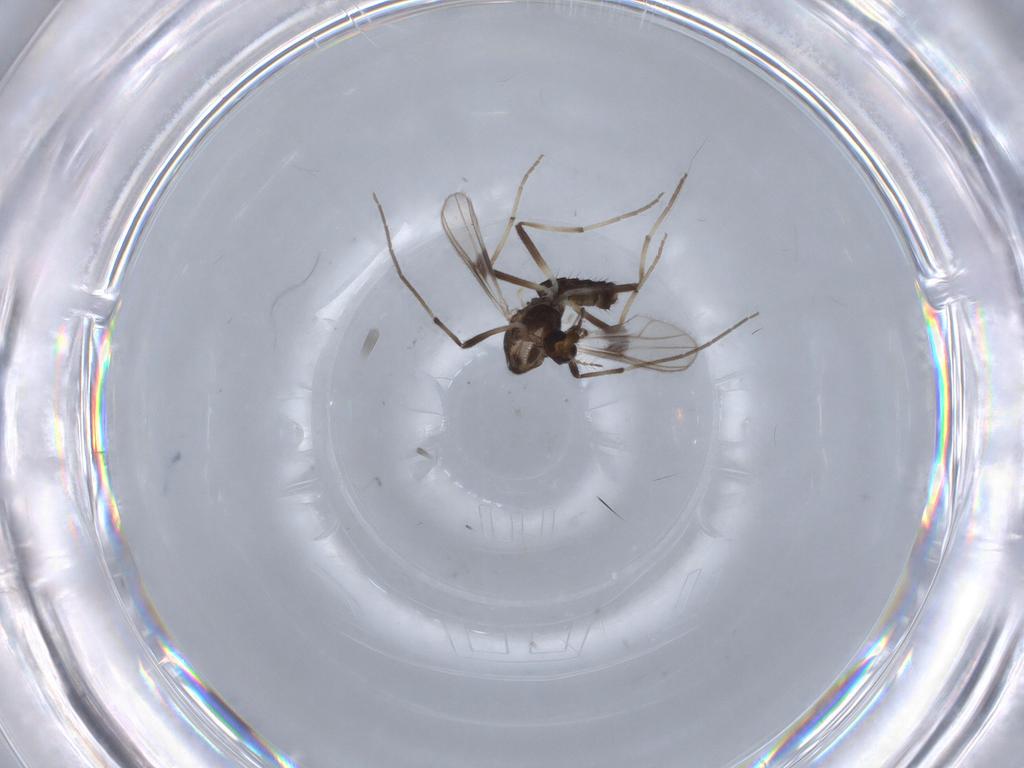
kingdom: Animalia
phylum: Arthropoda
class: Insecta
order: Diptera
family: Chironomidae
